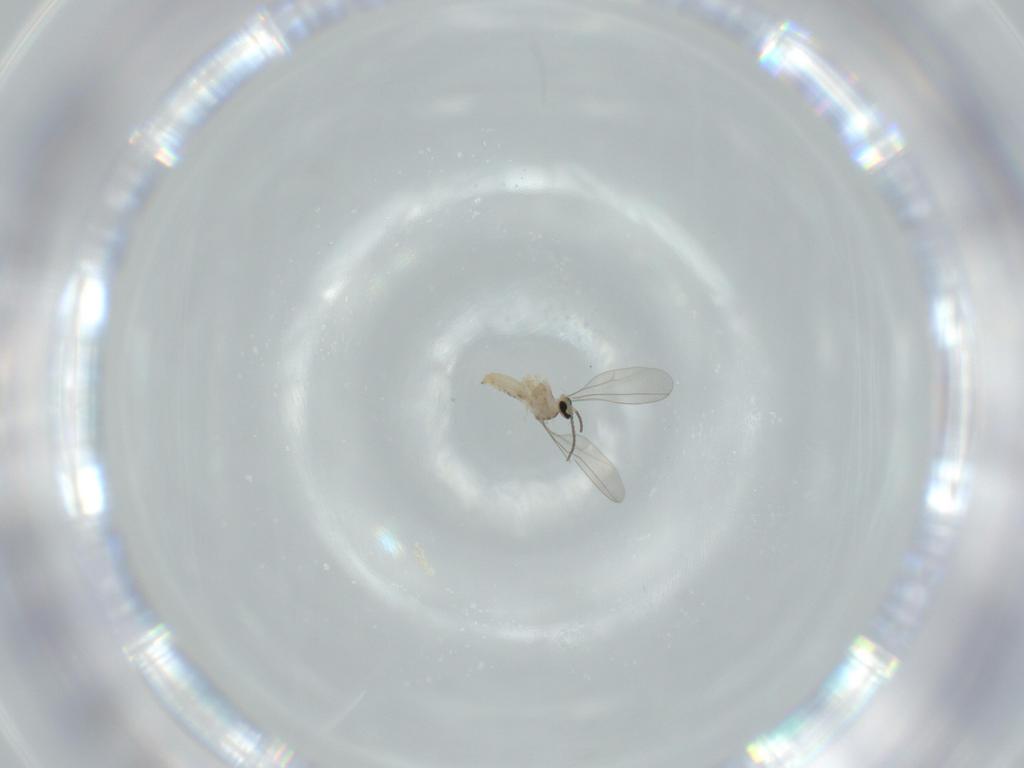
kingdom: Animalia
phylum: Arthropoda
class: Insecta
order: Diptera
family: Cecidomyiidae
